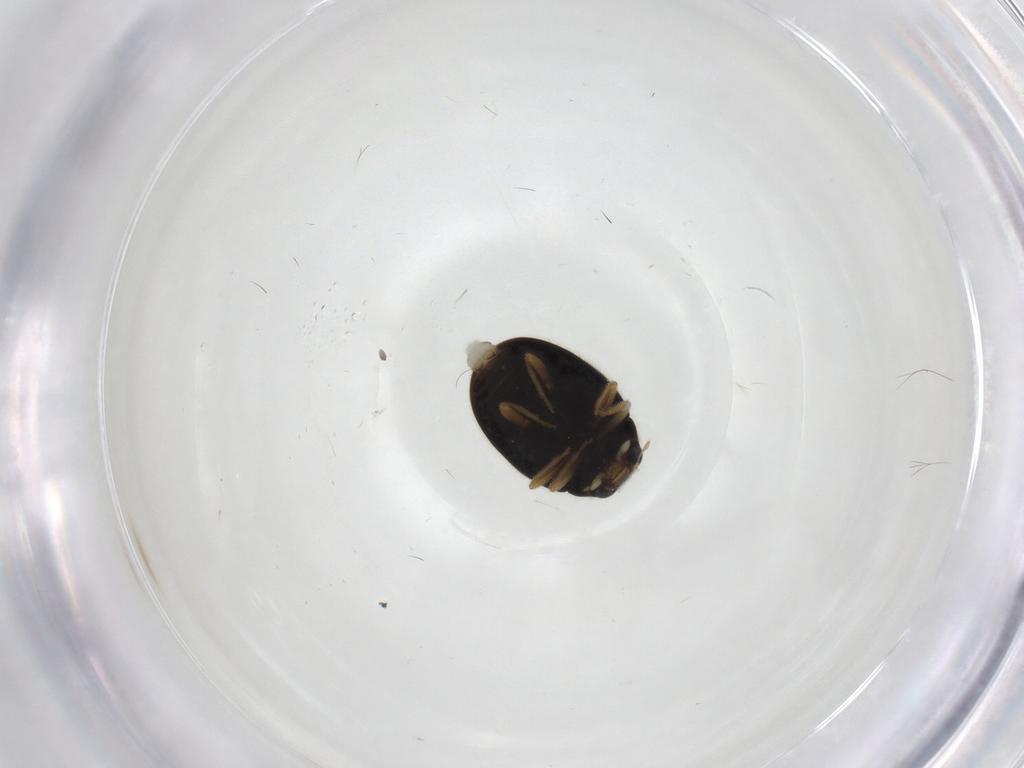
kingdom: Animalia
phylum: Arthropoda
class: Insecta
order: Coleoptera
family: Coccinellidae
